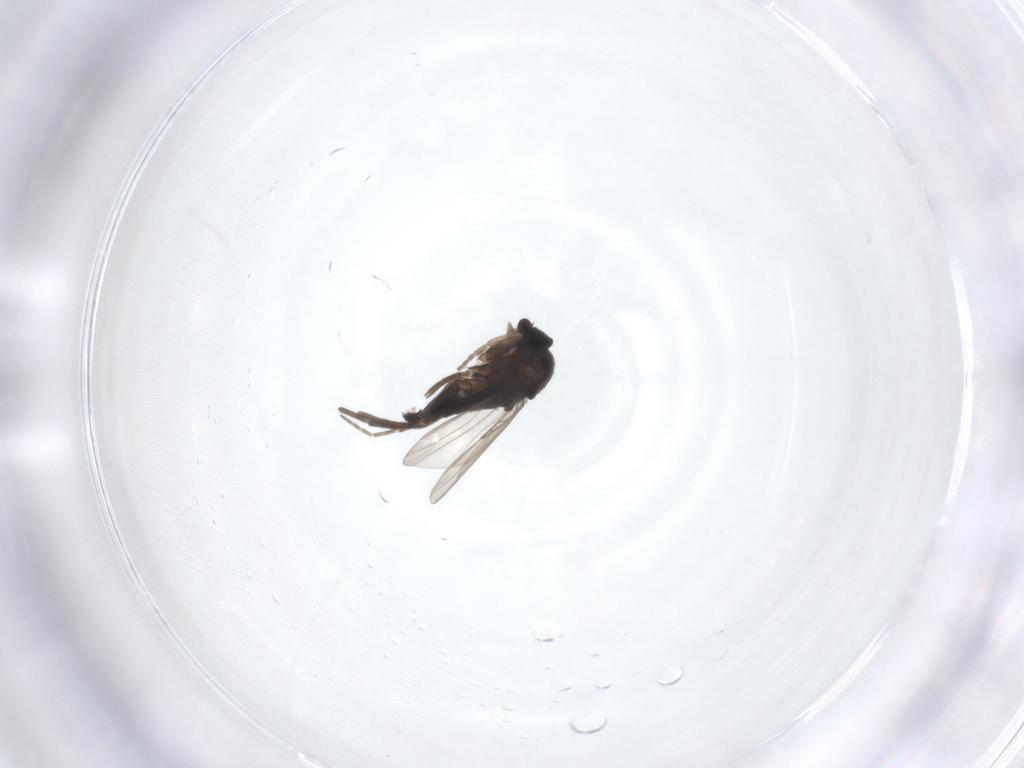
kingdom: Animalia
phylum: Arthropoda
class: Insecta
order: Diptera
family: Phoridae
